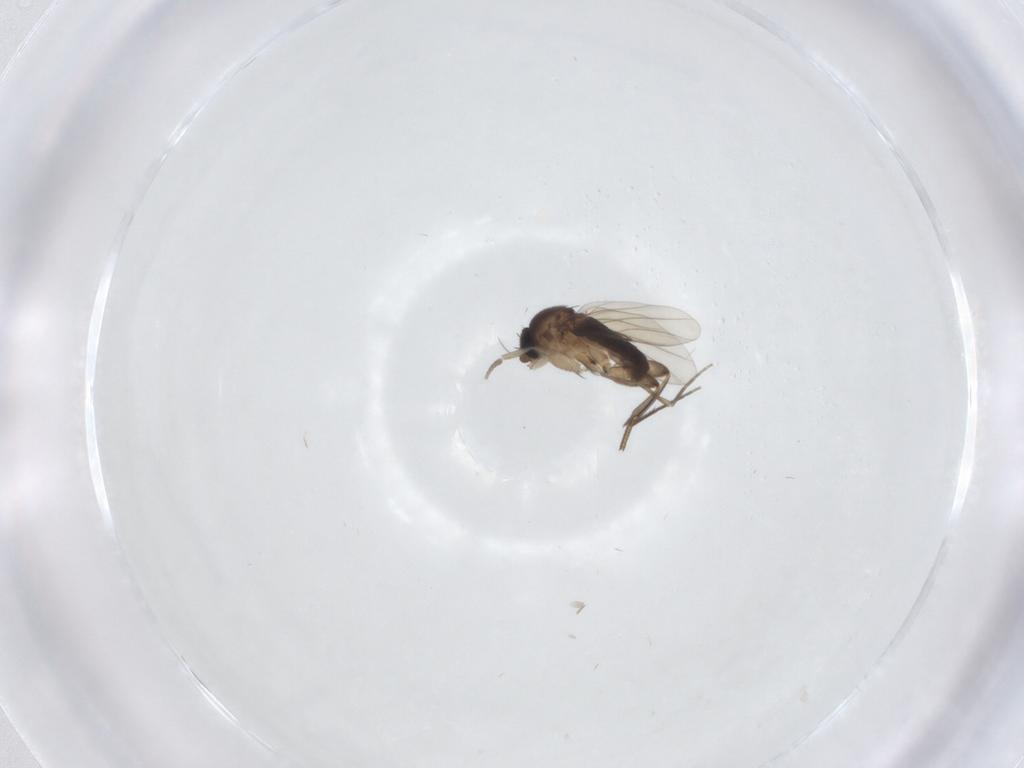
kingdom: Animalia
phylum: Arthropoda
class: Insecta
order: Diptera
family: Phoridae
